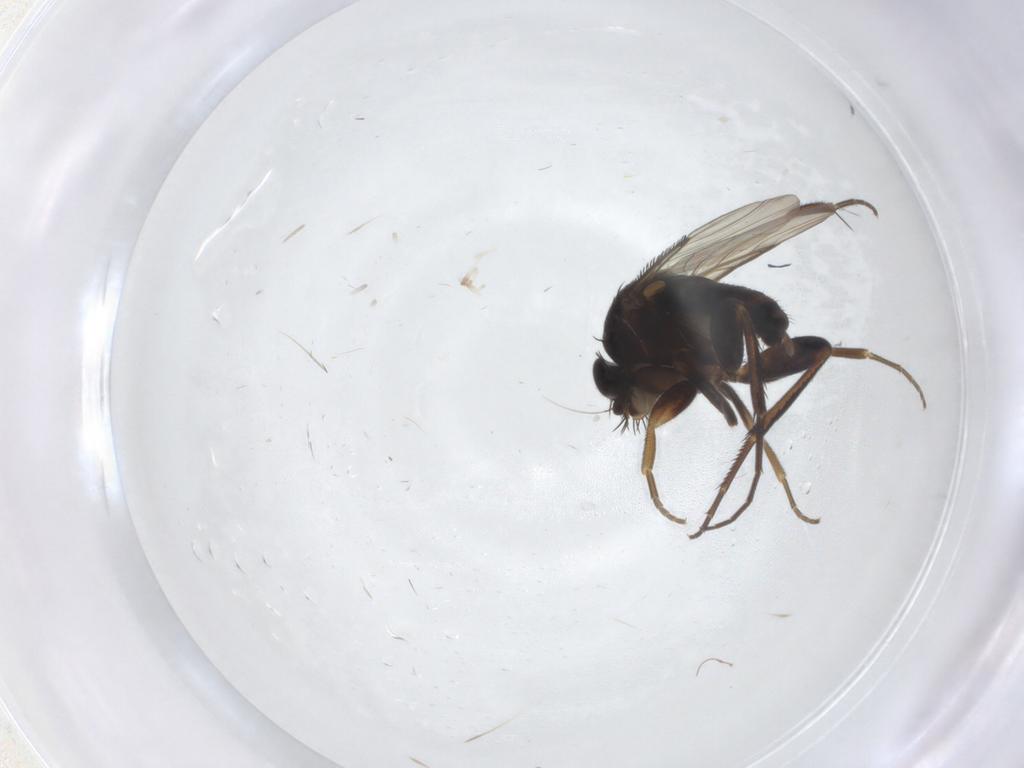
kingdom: Animalia
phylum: Arthropoda
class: Insecta
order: Diptera
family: Phoridae
